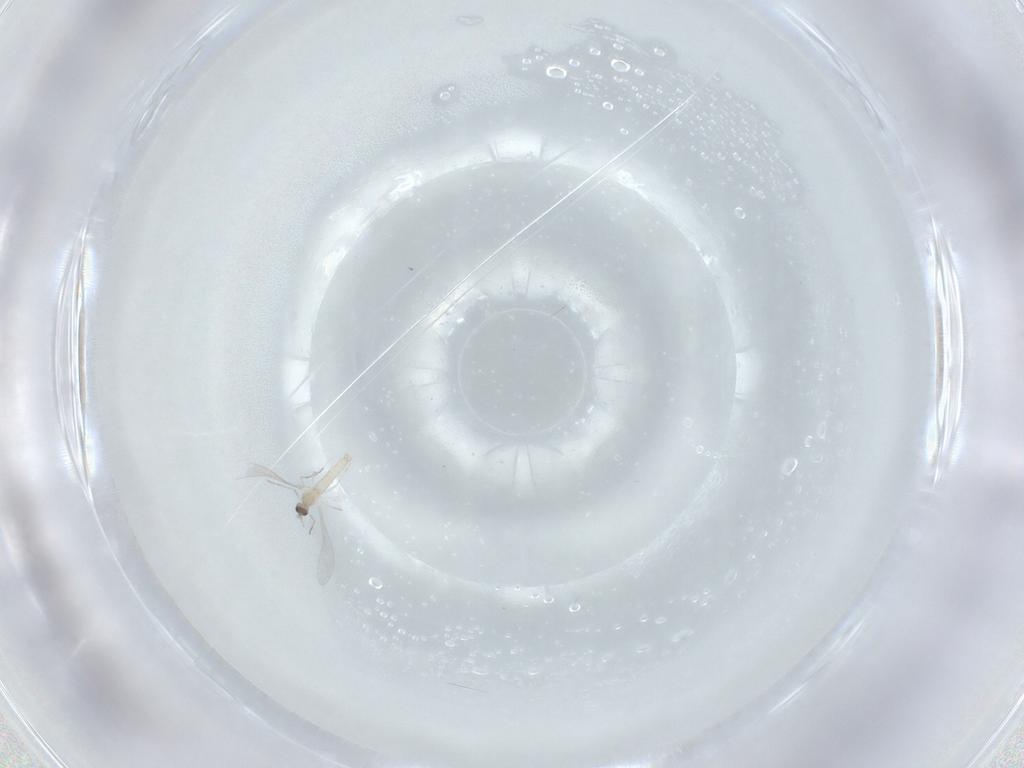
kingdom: Animalia
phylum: Arthropoda
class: Insecta
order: Diptera
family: Cecidomyiidae
